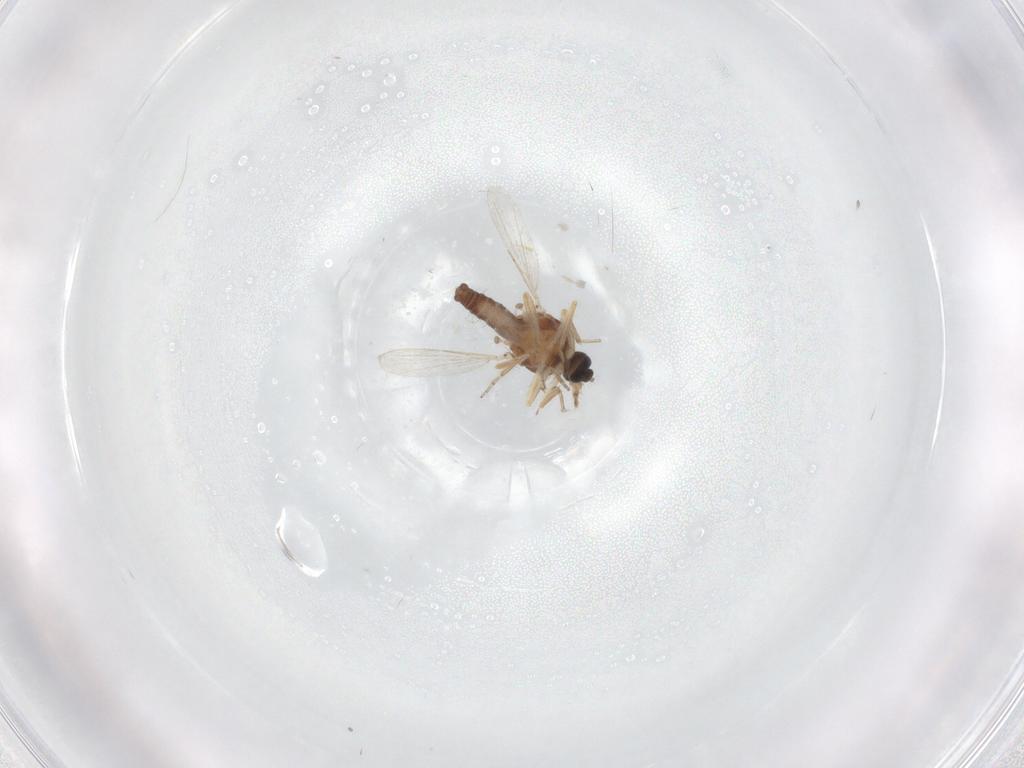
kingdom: Animalia
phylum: Arthropoda
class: Insecta
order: Diptera
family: Ceratopogonidae
